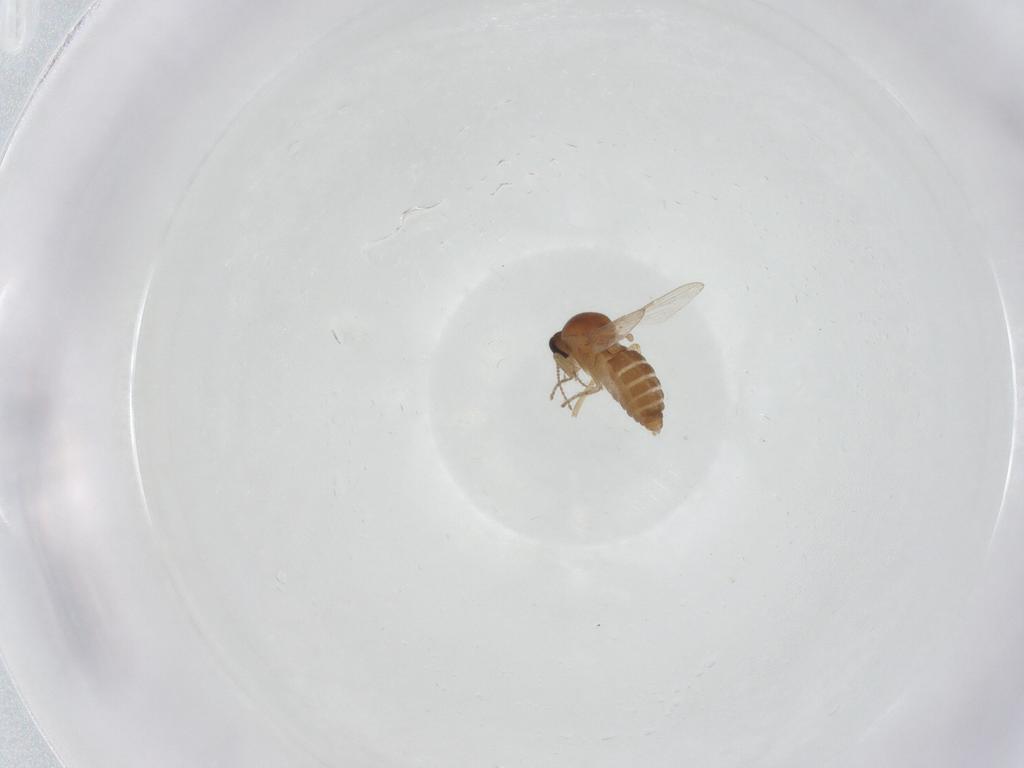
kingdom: Animalia
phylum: Arthropoda
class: Insecta
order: Diptera
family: Ceratopogonidae
